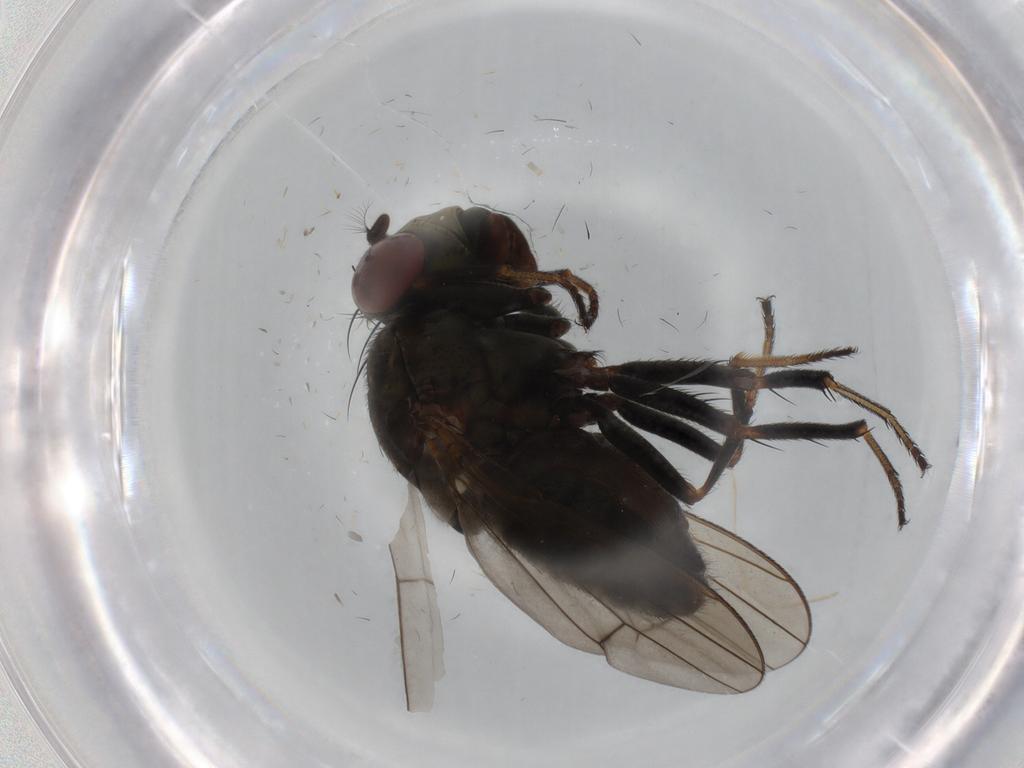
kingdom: Animalia
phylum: Arthropoda
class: Insecta
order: Diptera
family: Ephydridae
